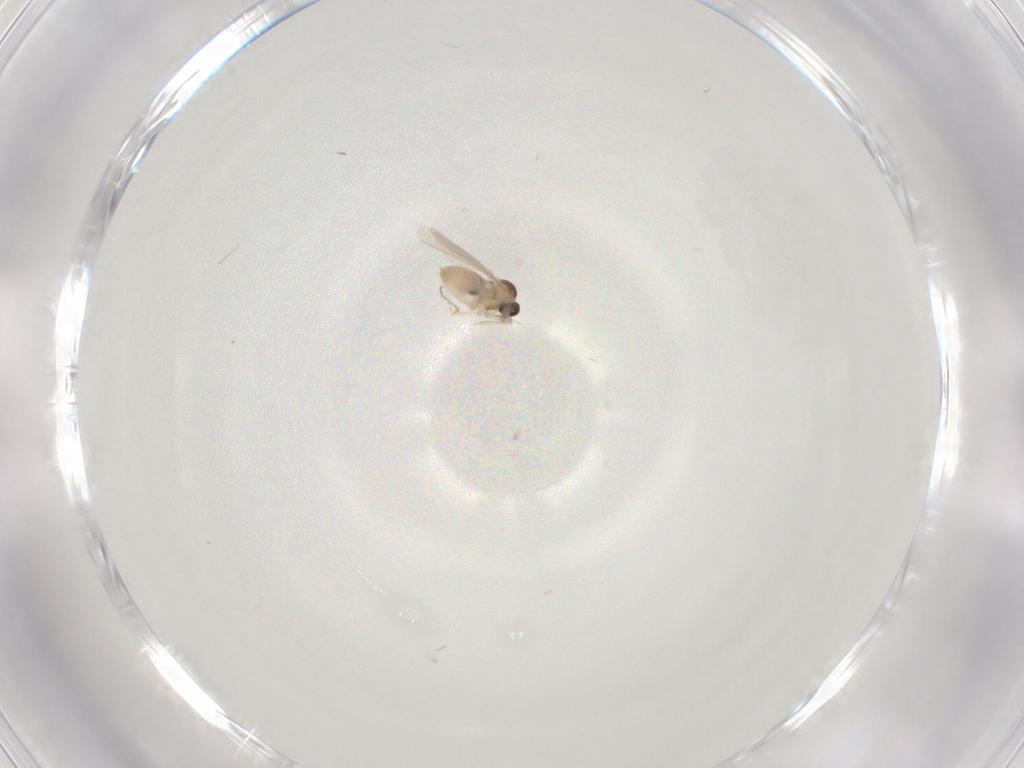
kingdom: Animalia
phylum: Arthropoda
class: Insecta
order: Diptera
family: Cecidomyiidae
